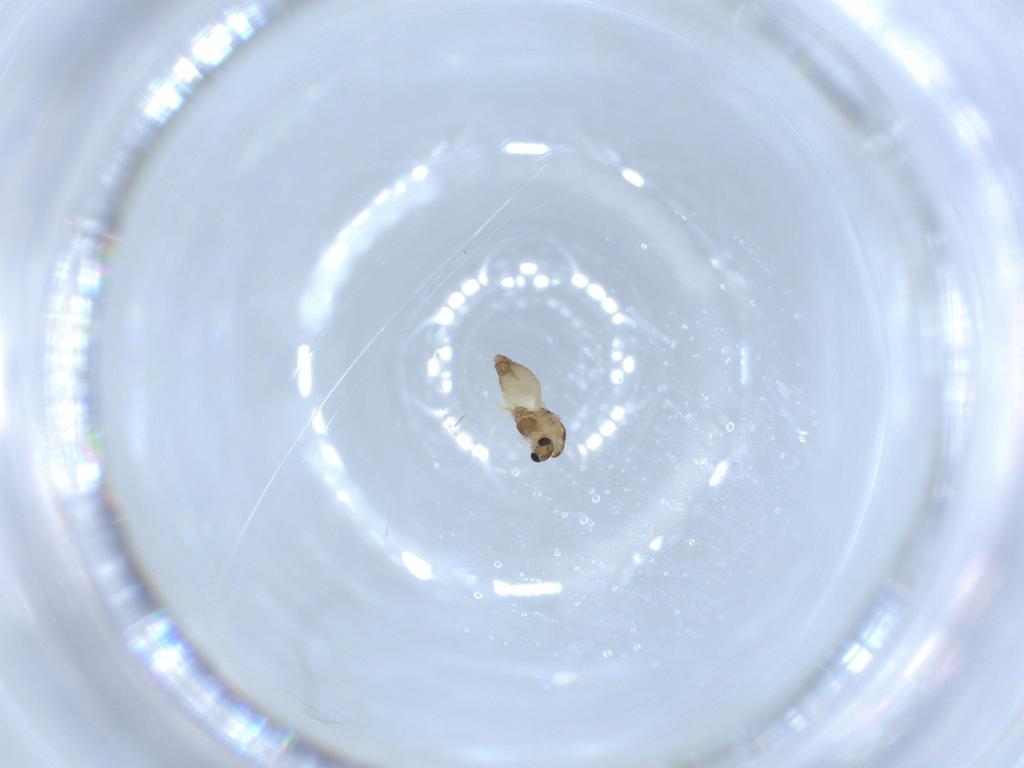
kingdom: Animalia
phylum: Arthropoda
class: Insecta
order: Diptera
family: Chironomidae
